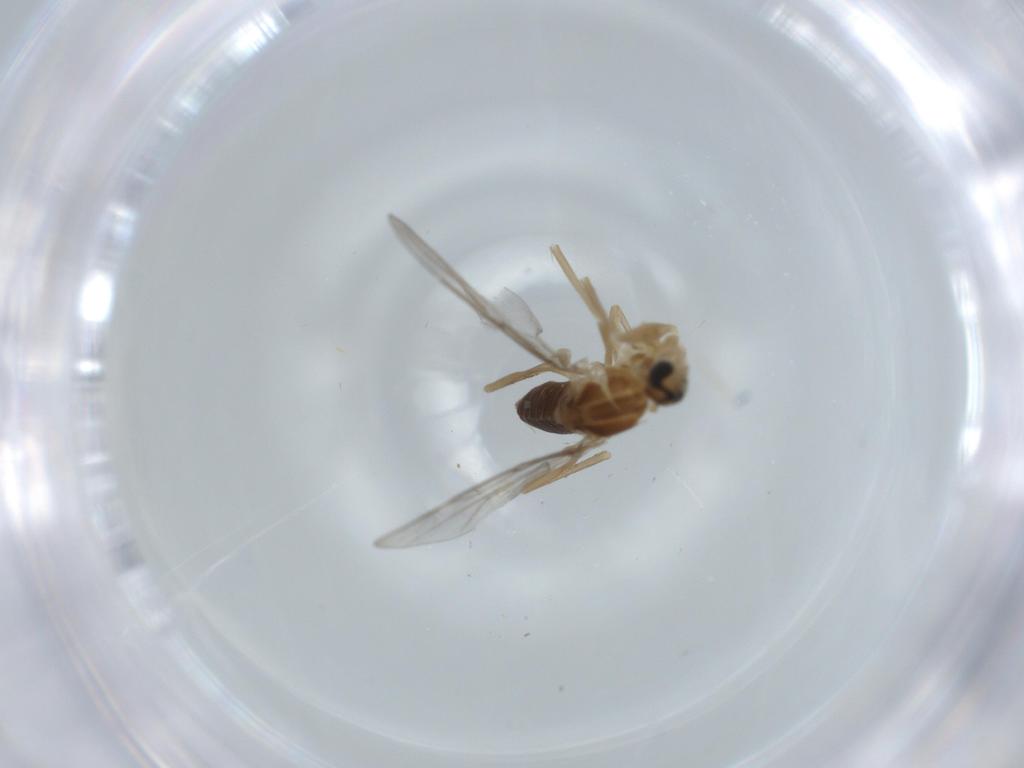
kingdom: Animalia
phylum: Arthropoda
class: Insecta
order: Diptera
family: Cecidomyiidae
